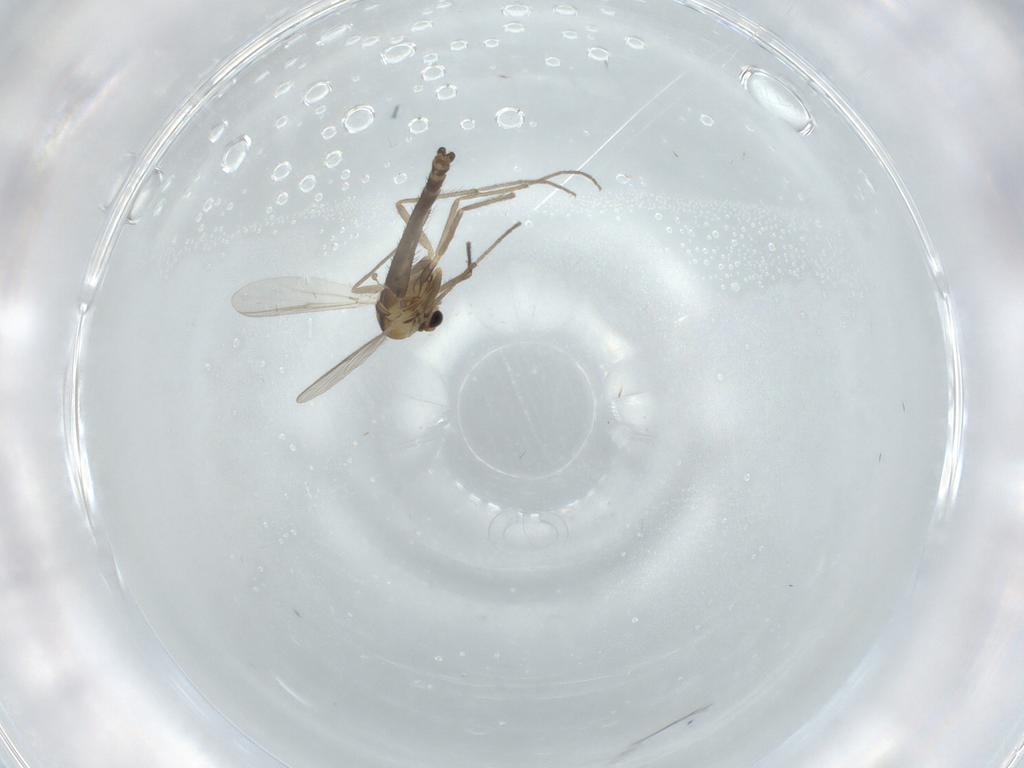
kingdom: Animalia
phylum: Arthropoda
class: Insecta
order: Diptera
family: Chironomidae
